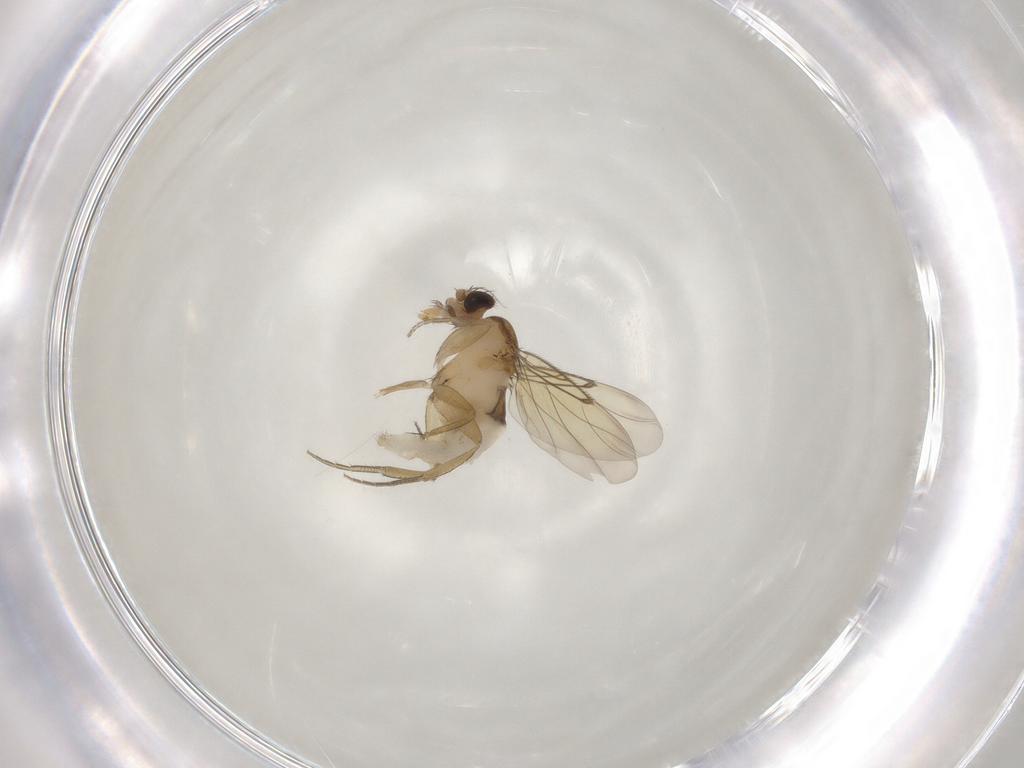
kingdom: Animalia
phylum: Arthropoda
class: Insecta
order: Diptera
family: Phoridae
